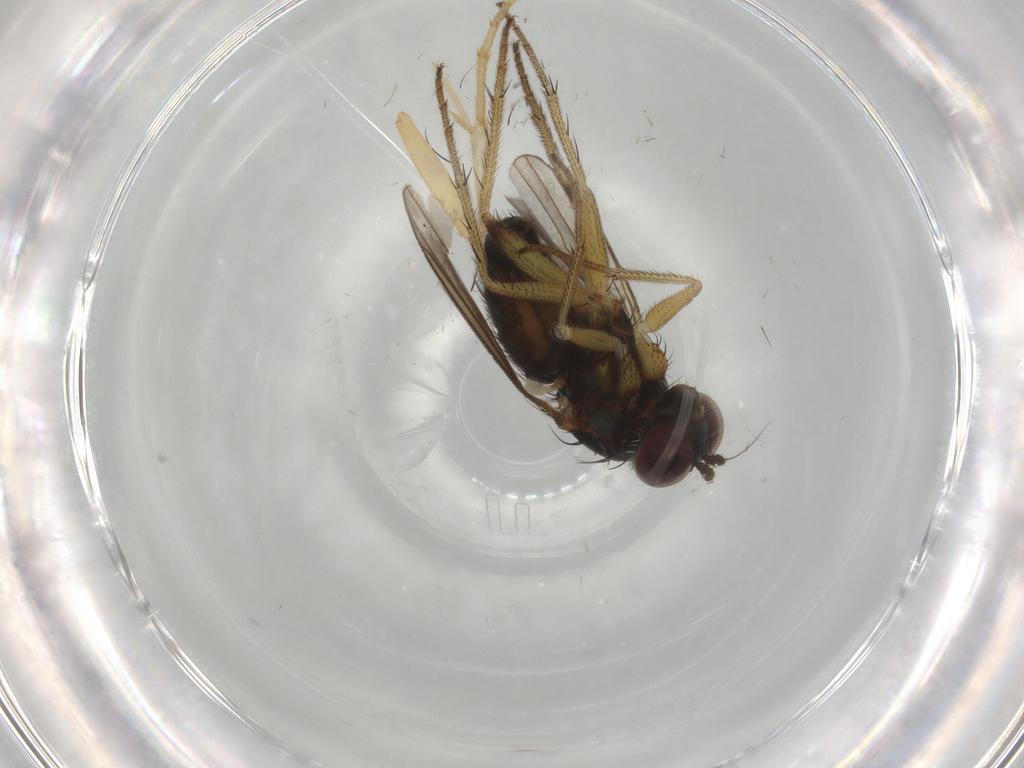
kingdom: Animalia
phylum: Arthropoda
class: Insecta
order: Diptera
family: Dolichopodidae
